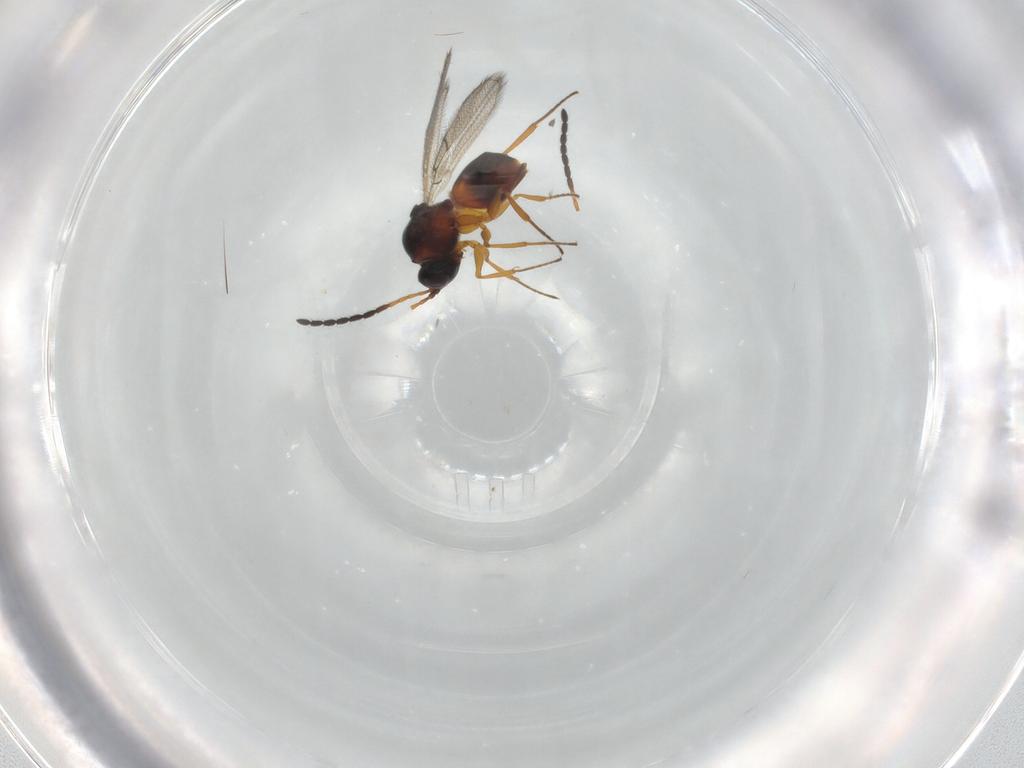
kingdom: Animalia
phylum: Arthropoda
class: Insecta
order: Hymenoptera
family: Figitidae
